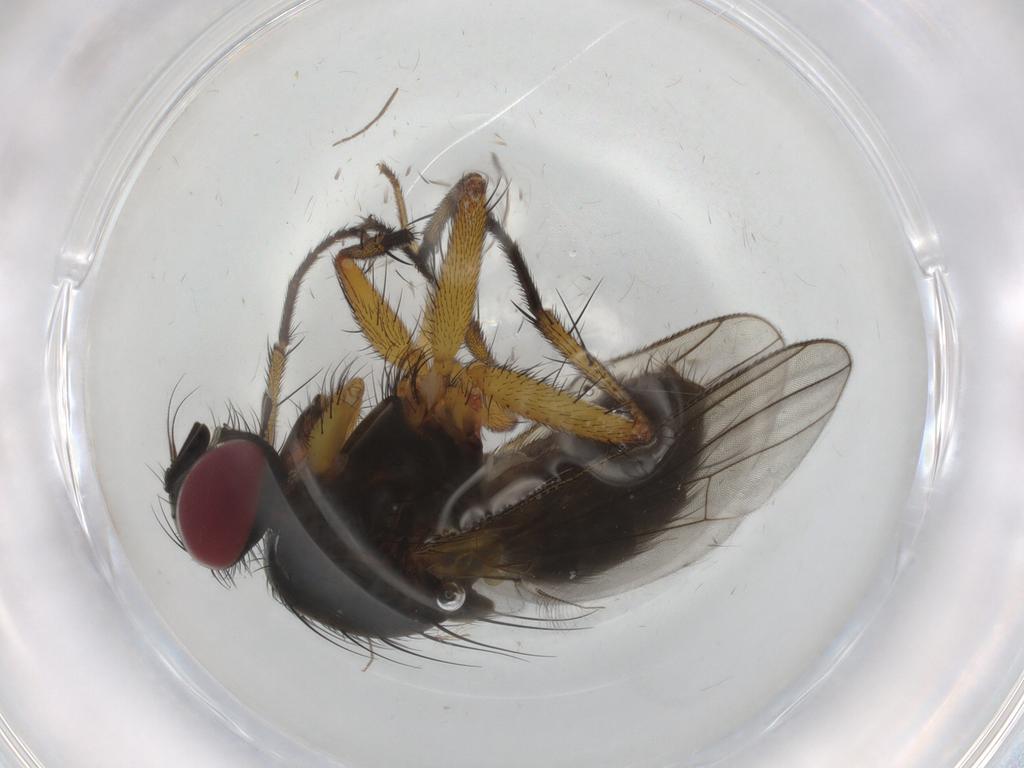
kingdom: Animalia
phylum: Arthropoda
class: Insecta
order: Diptera
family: Muscidae
